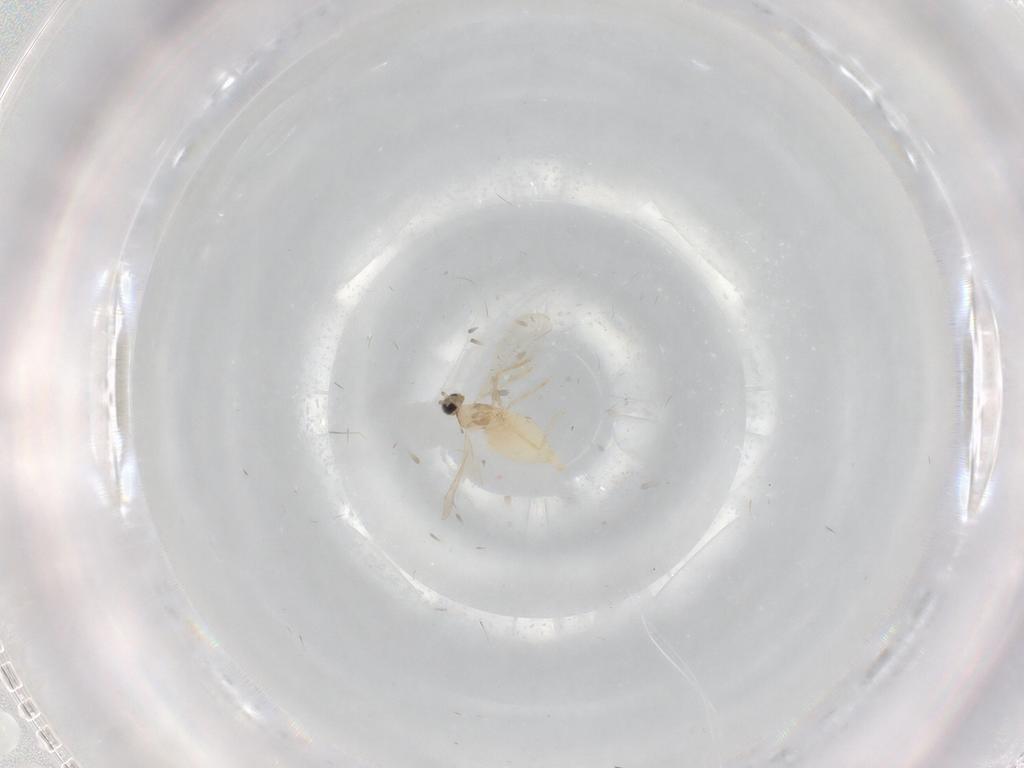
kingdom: Animalia
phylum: Arthropoda
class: Insecta
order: Diptera
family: Cecidomyiidae
